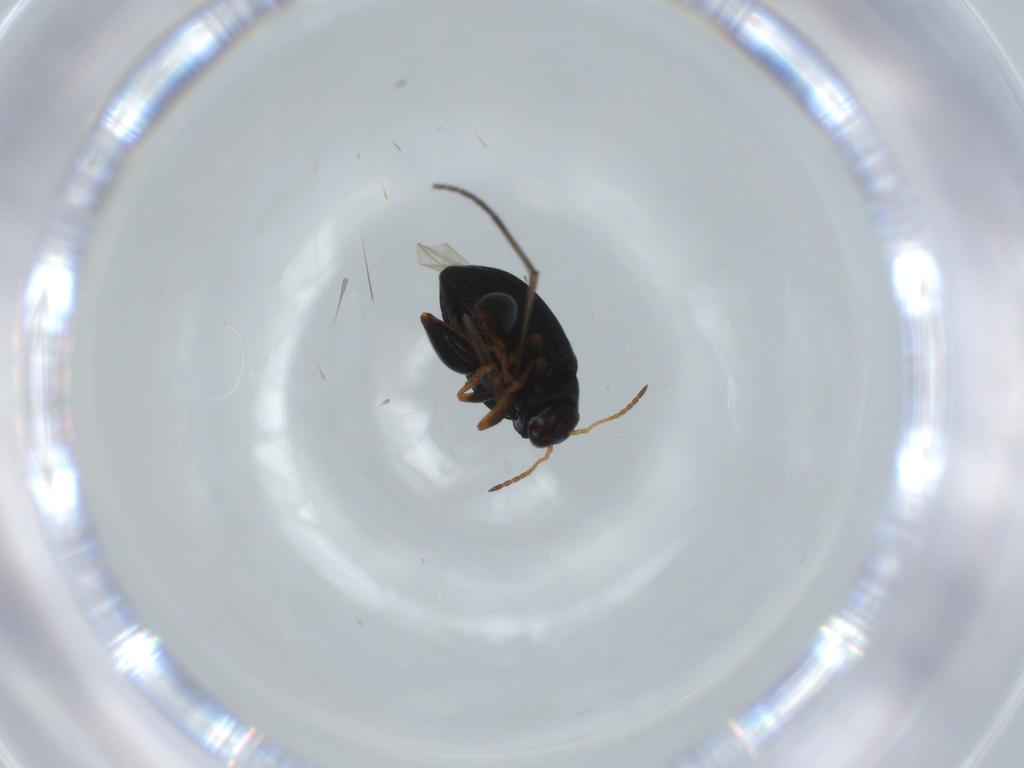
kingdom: Animalia
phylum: Arthropoda
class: Insecta
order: Coleoptera
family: Chrysomelidae
